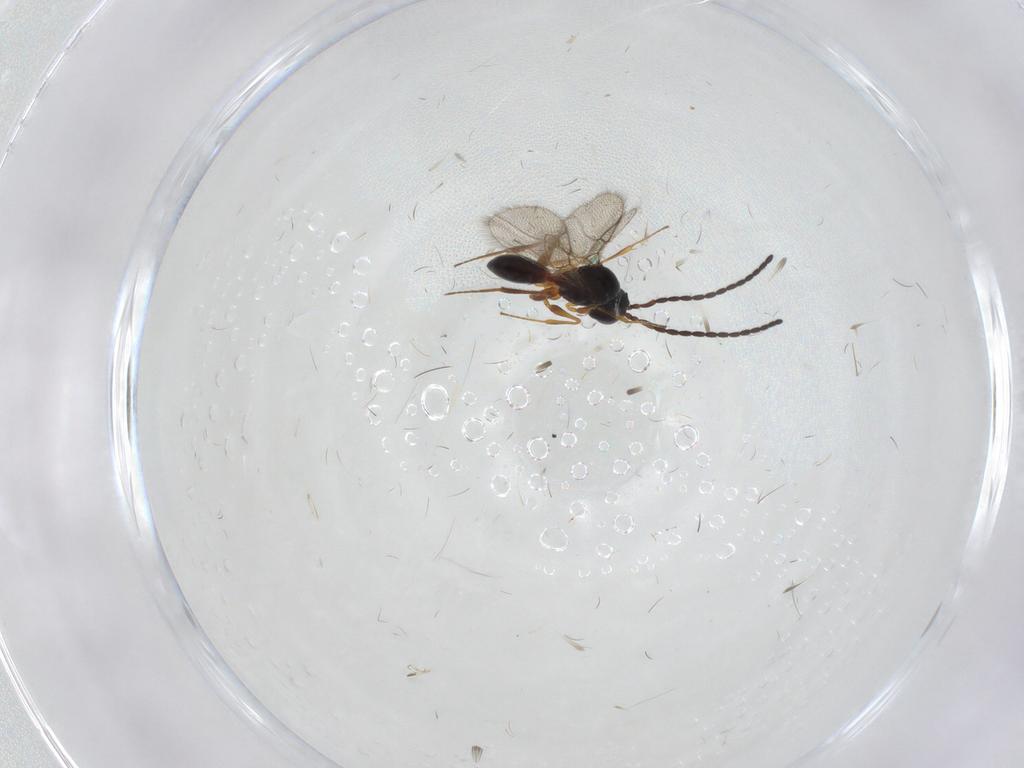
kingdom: Animalia
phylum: Arthropoda
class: Insecta
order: Hymenoptera
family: Figitidae
